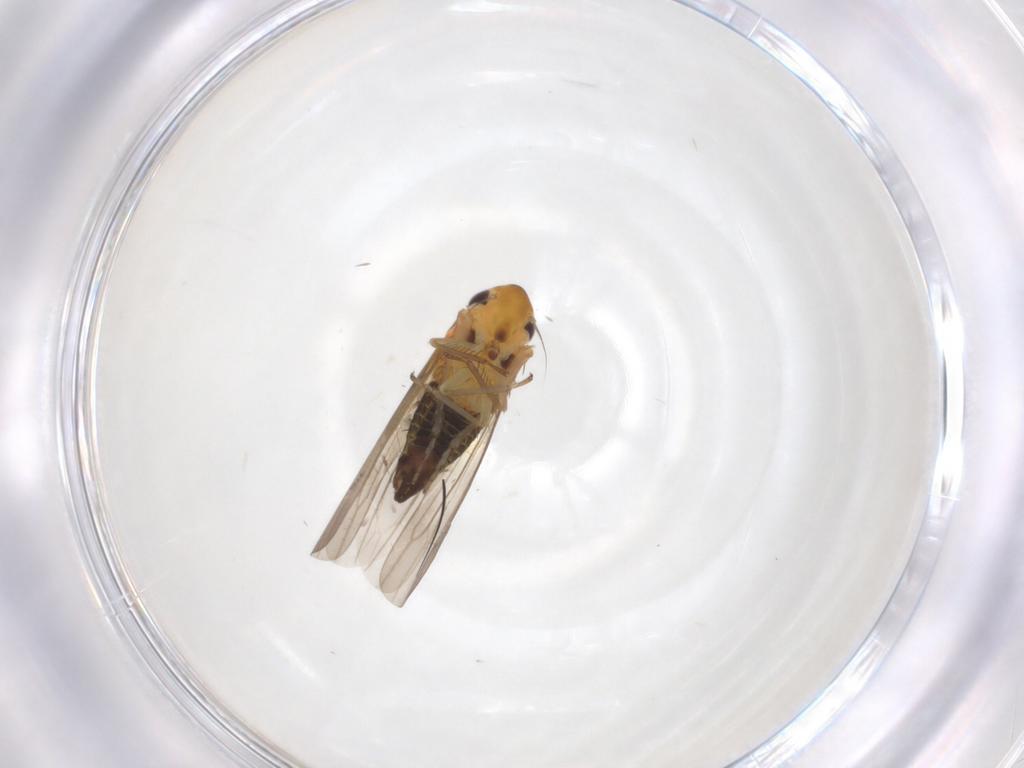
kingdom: Animalia
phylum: Arthropoda
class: Insecta
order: Hemiptera
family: Cicadellidae
